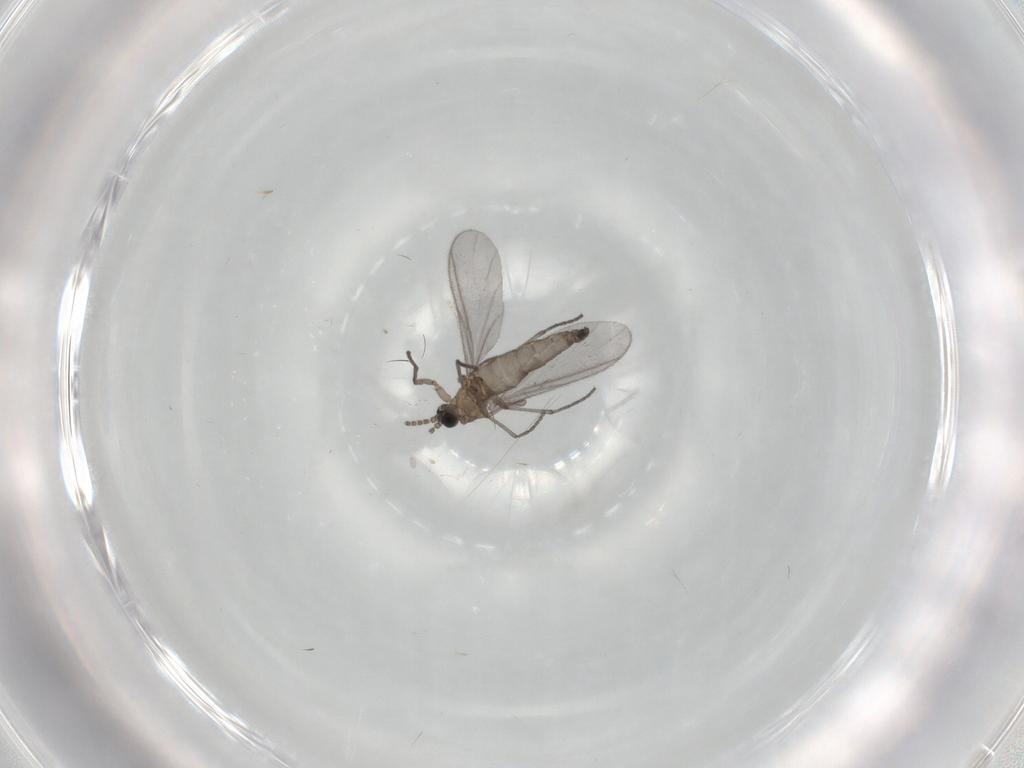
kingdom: Animalia
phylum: Arthropoda
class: Insecta
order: Diptera
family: Sciaridae
